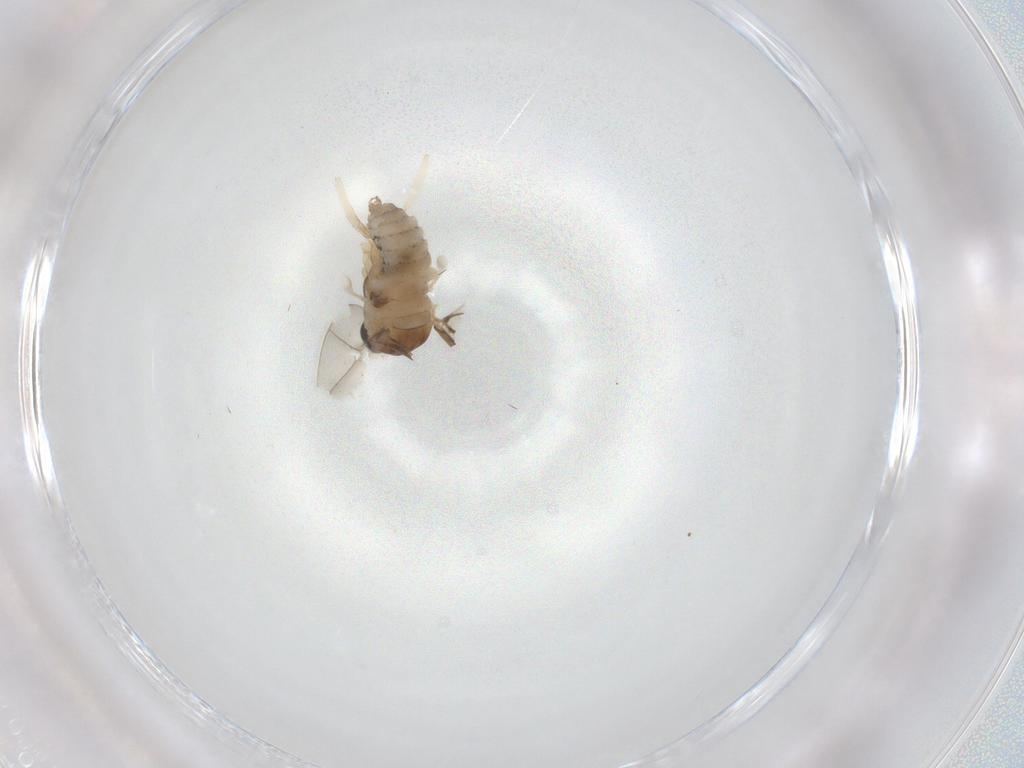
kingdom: Animalia
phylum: Arthropoda
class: Insecta
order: Diptera
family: Cecidomyiidae
